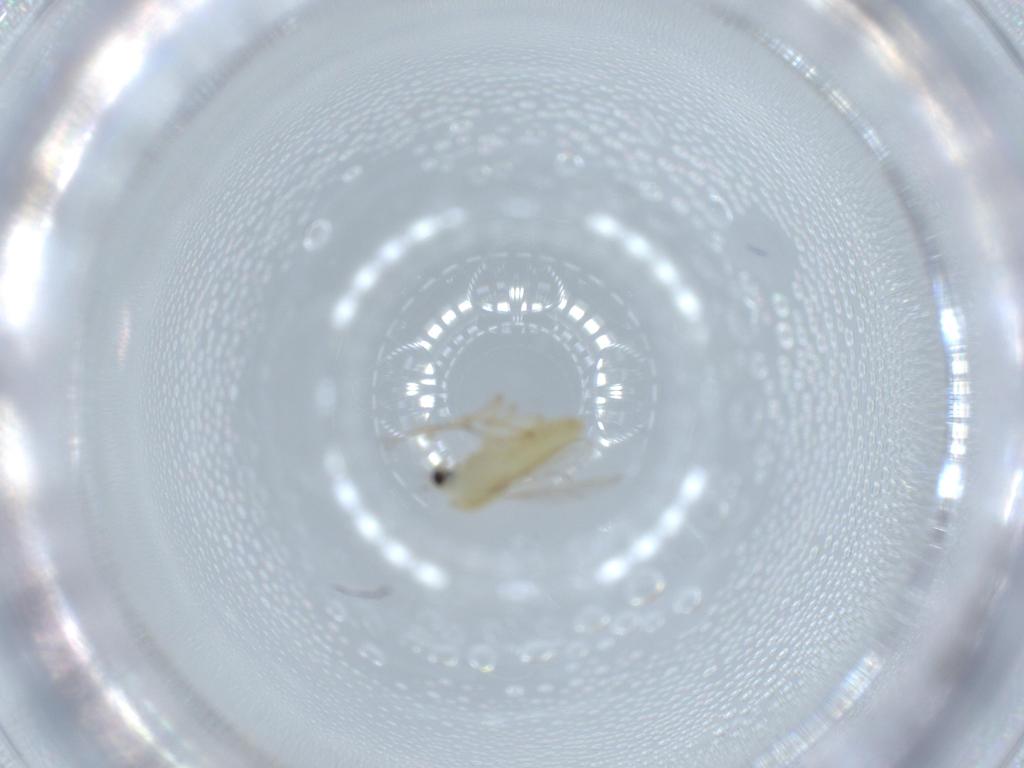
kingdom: Animalia
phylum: Arthropoda
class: Insecta
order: Diptera
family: Chironomidae
